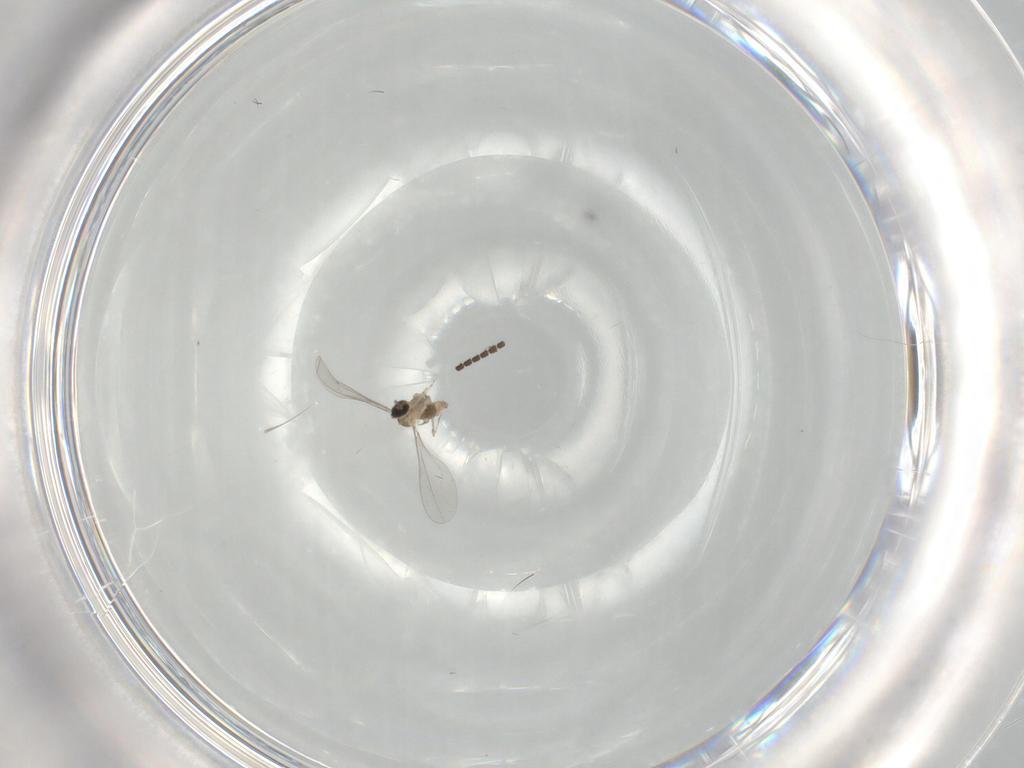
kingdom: Animalia
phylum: Arthropoda
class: Insecta
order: Diptera
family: Cecidomyiidae
